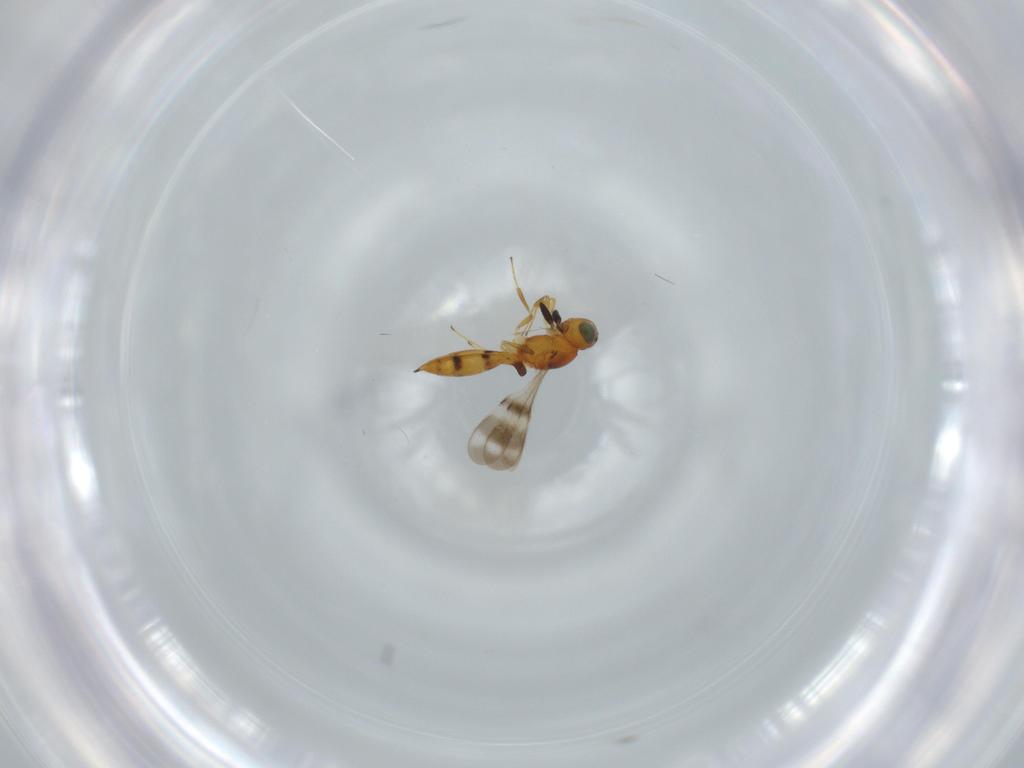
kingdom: Animalia
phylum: Arthropoda
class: Insecta
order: Hymenoptera
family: Scelionidae
